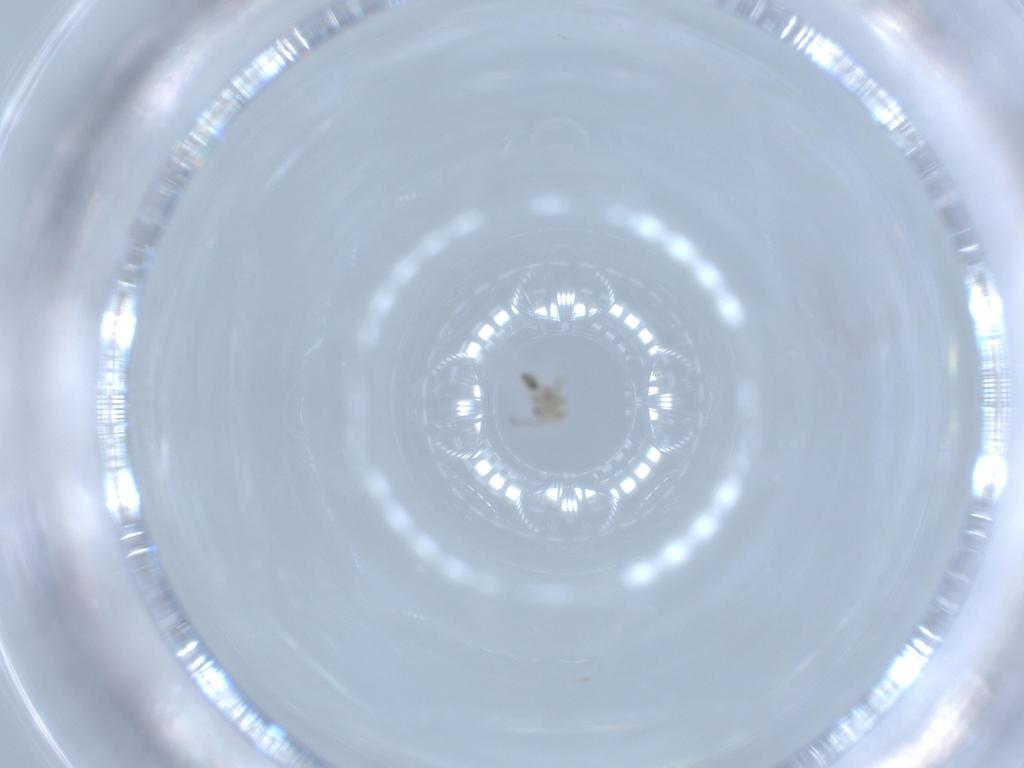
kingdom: Animalia
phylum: Arthropoda
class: Insecta
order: Psocodea
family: Lepidopsocidae
